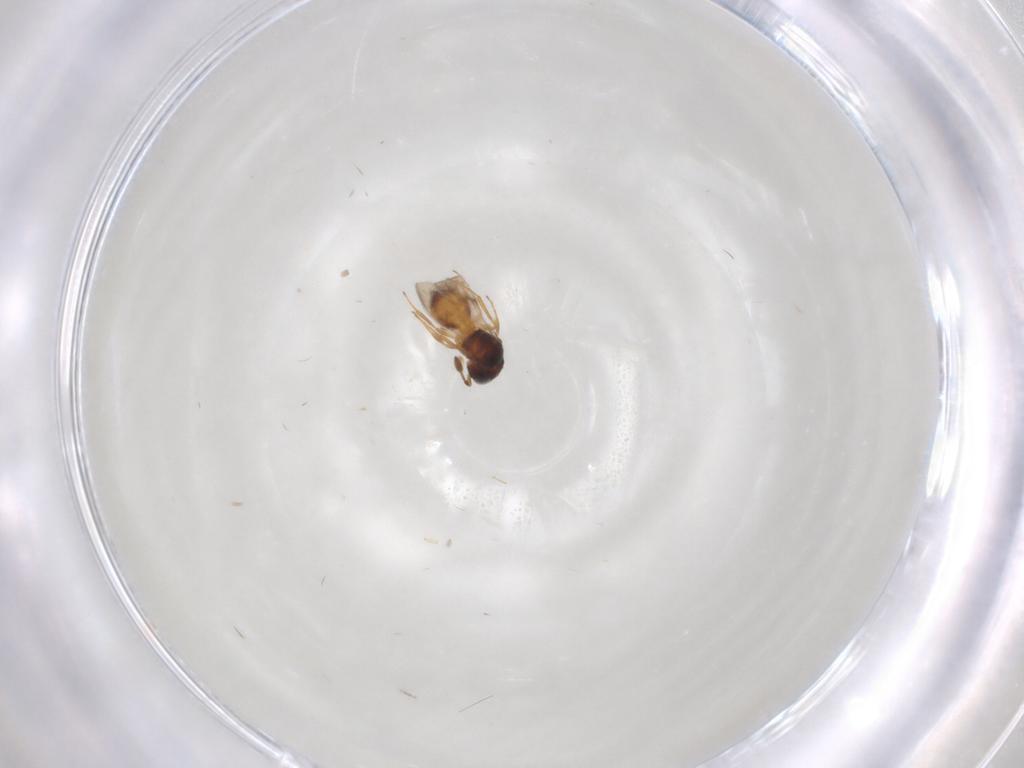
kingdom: Animalia
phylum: Arthropoda
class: Insecta
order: Hymenoptera
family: Scelionidae
